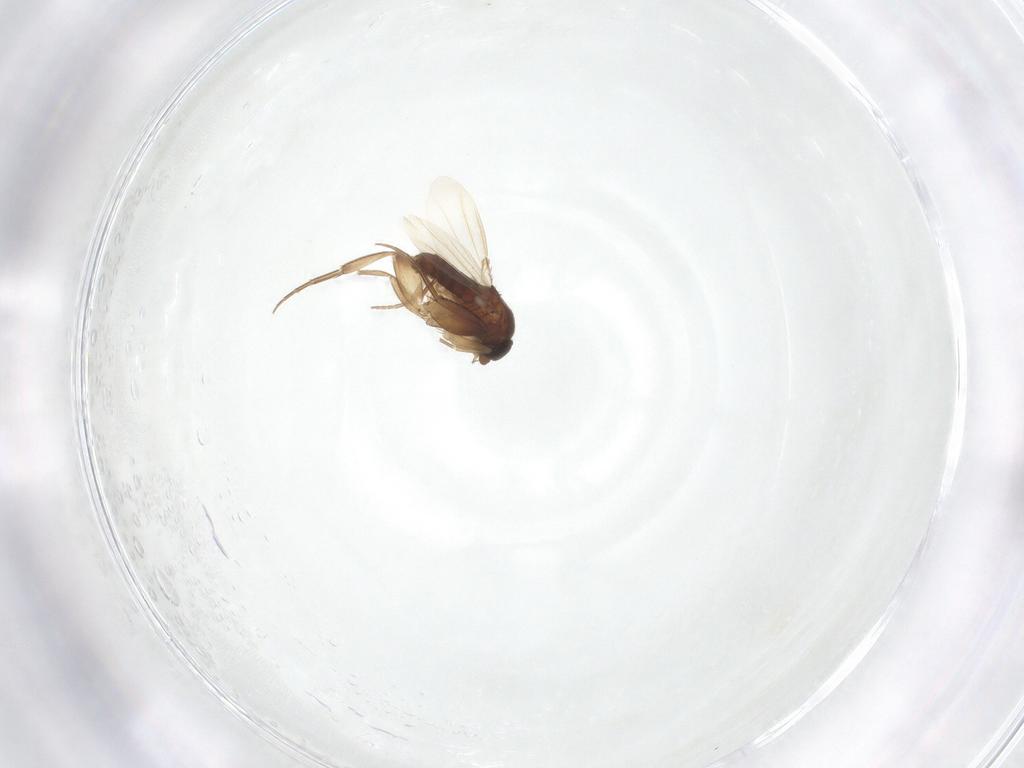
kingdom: Animalia
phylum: Arthropoda
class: Insecta
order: Diptera
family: Phoridae
